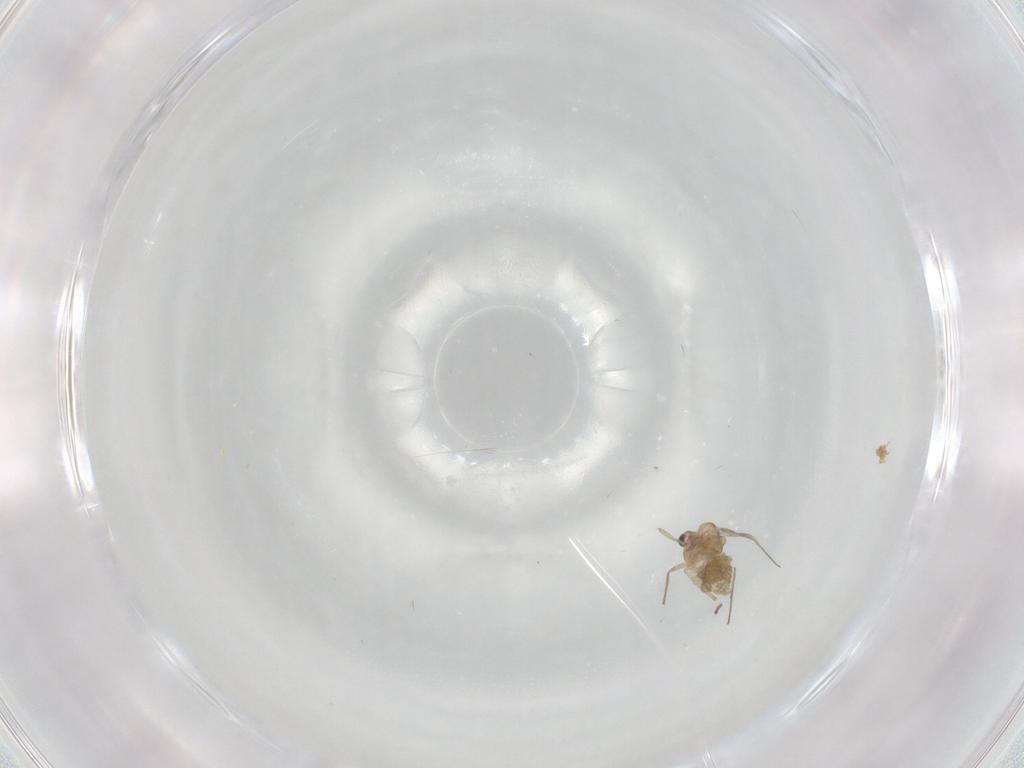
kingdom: Animalia
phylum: Arthropoda
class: Insecta
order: Diptera
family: Chironomidae
